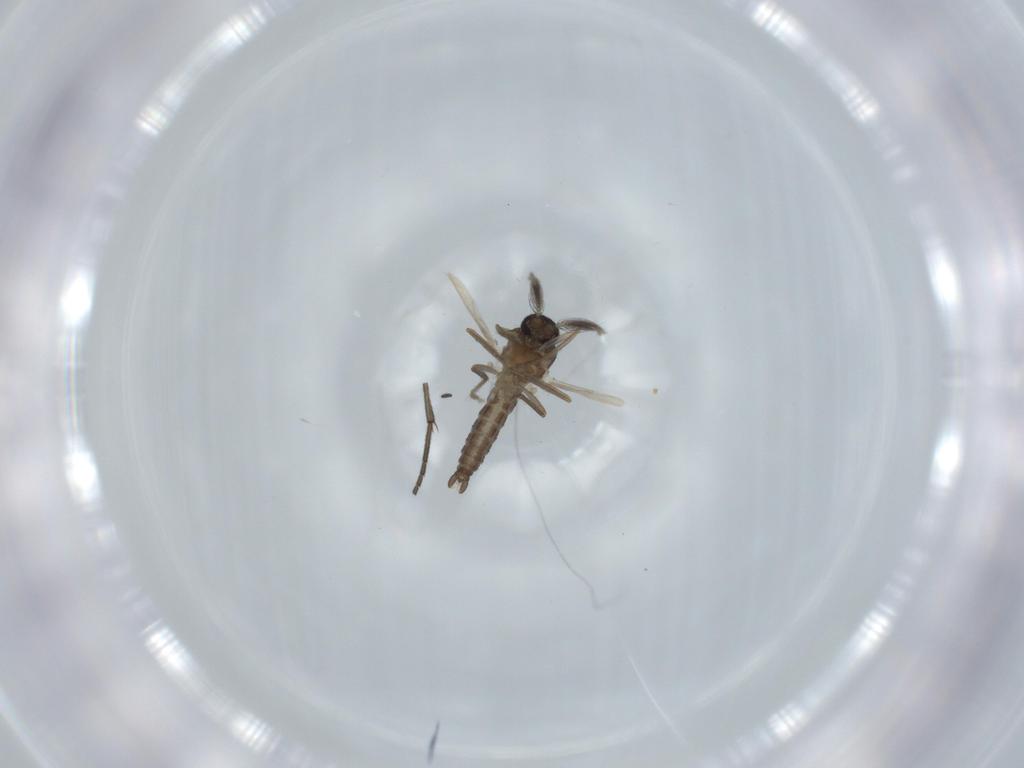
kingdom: Animalia
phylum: Arthropoda
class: Insecta
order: Diptera
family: Ceratopogonidae
